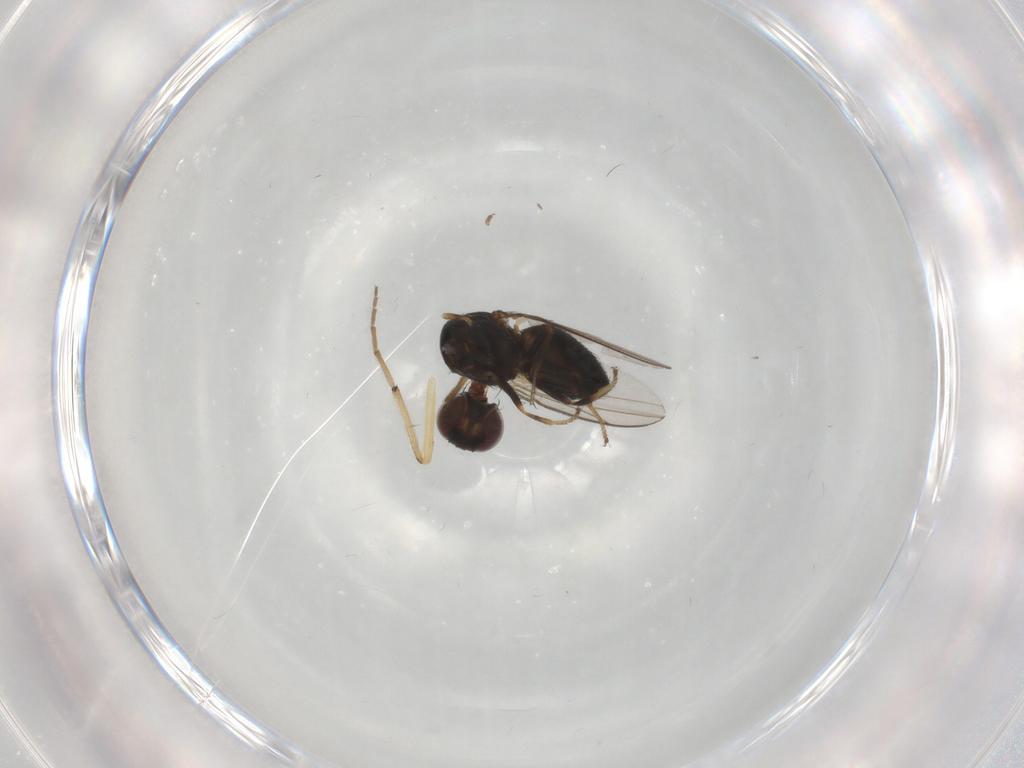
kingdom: Animalia
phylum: Arthropoda
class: Insecta
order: Diptera
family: Chironomidae
